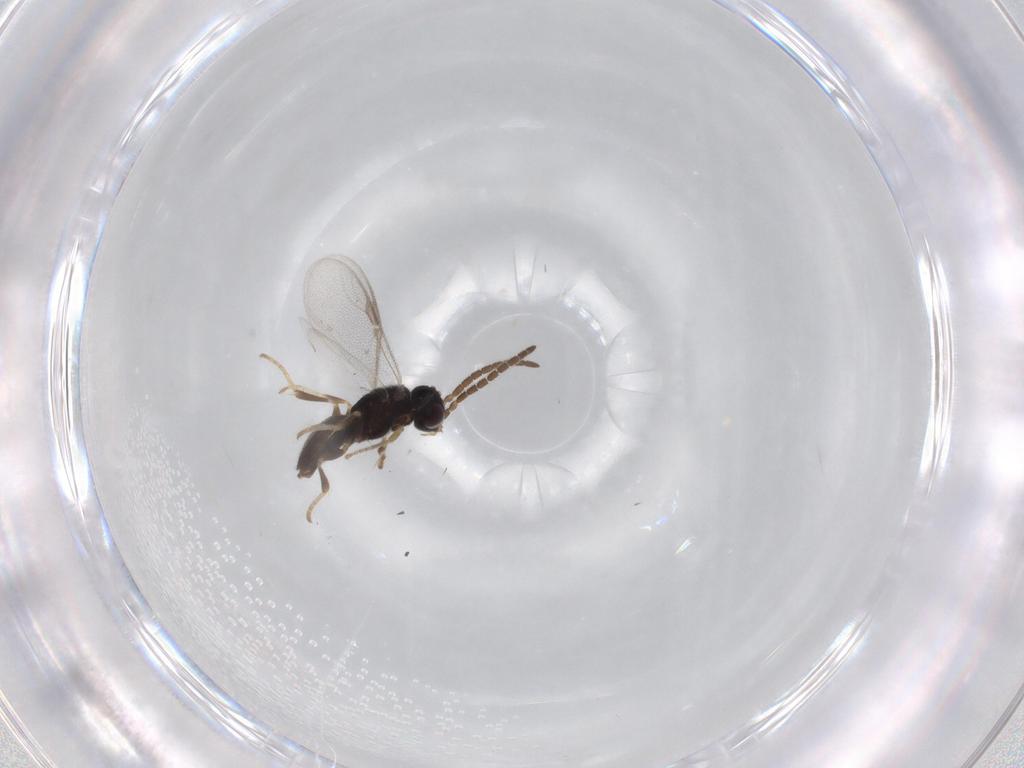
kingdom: Animalia
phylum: Arthropoda
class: Insecta
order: Hymenoptera
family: Dryinidae
